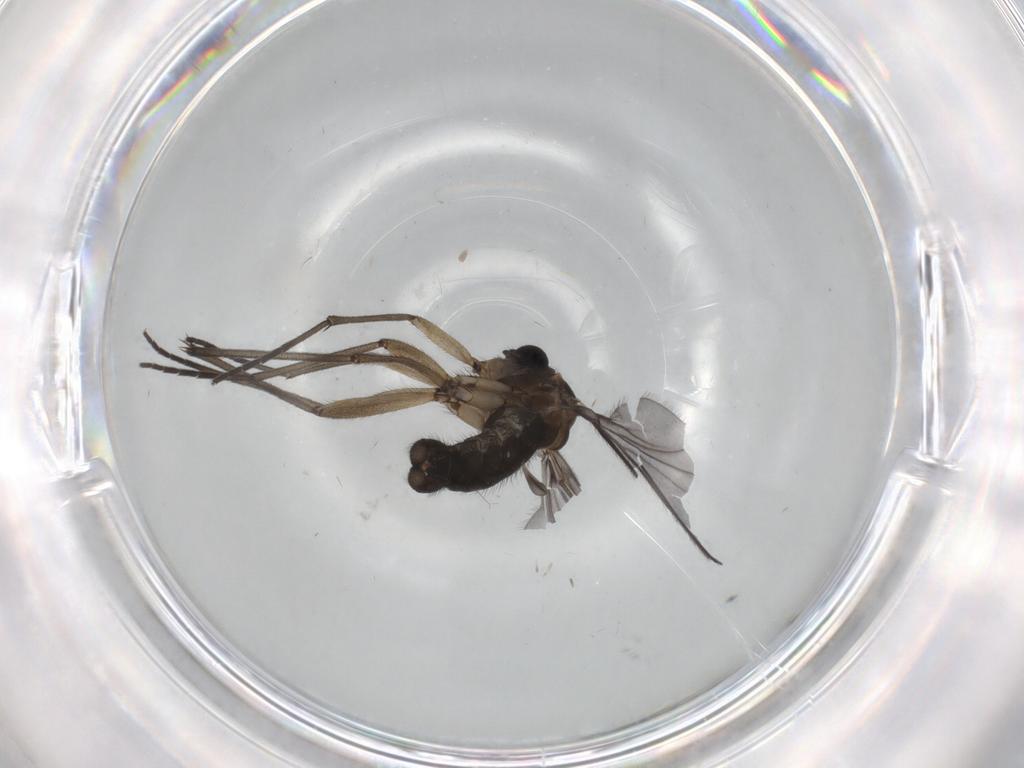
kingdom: Animalia
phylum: Arthropoda
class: Insecta
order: Diptera
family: Sciaridae
